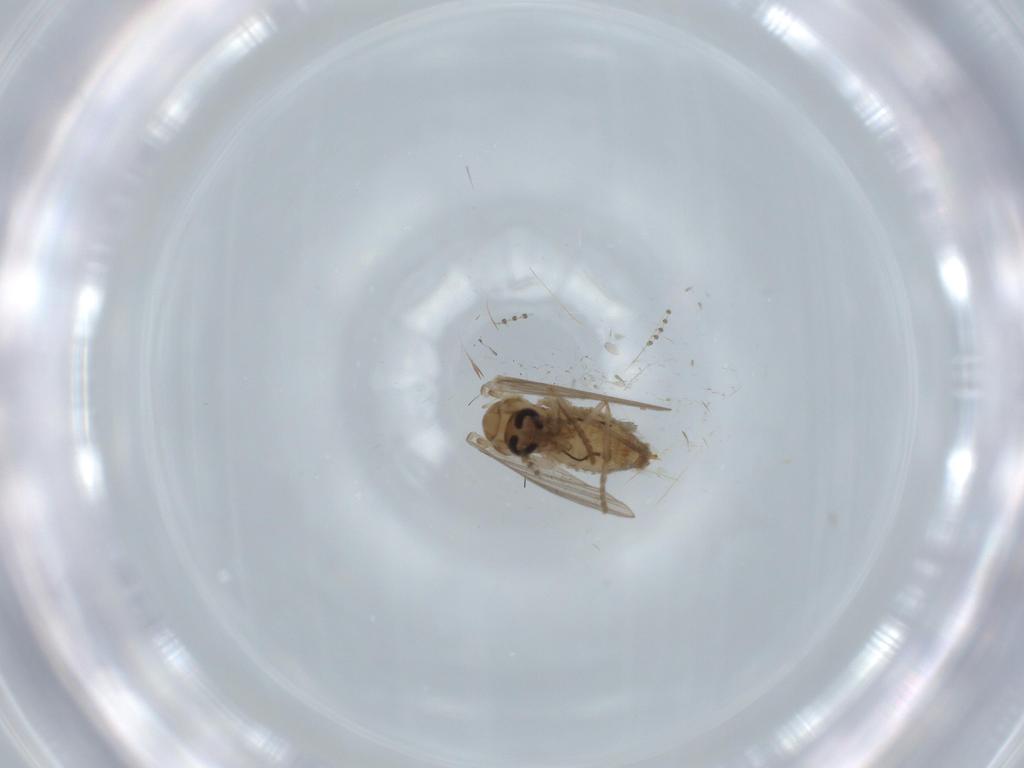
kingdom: Animalia
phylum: Arthropoda
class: Insecta
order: Diptera
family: Psychodidae
